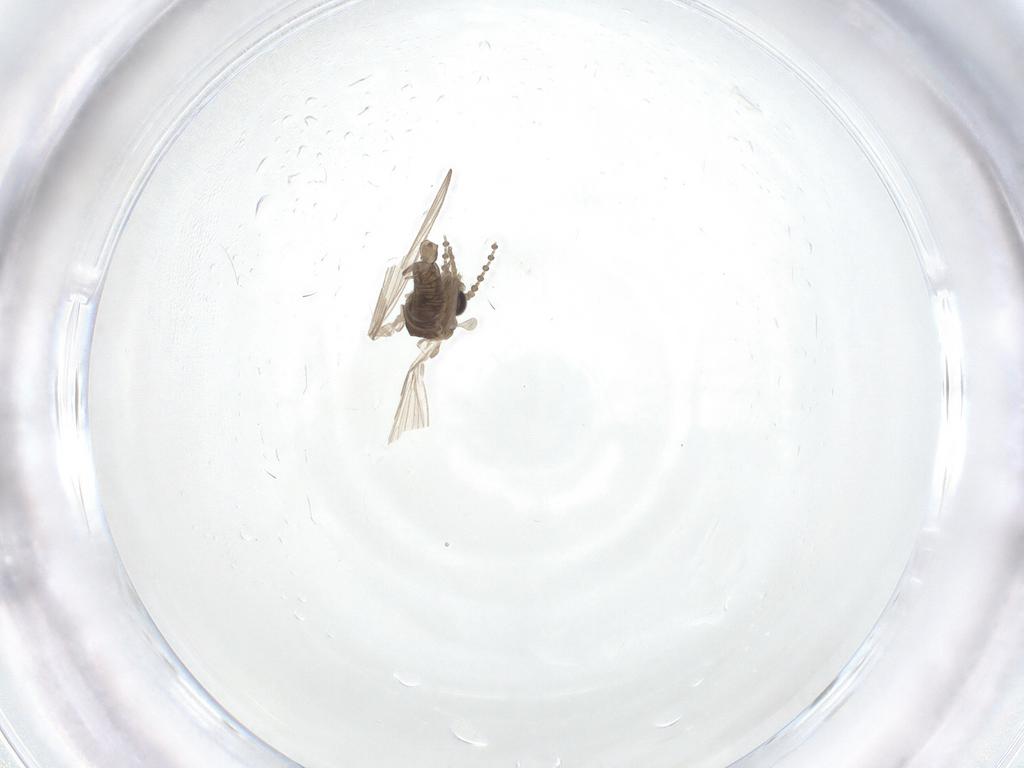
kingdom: Animalia
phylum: Arthropoda
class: Insecta
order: Diptera
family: Psychodidae
